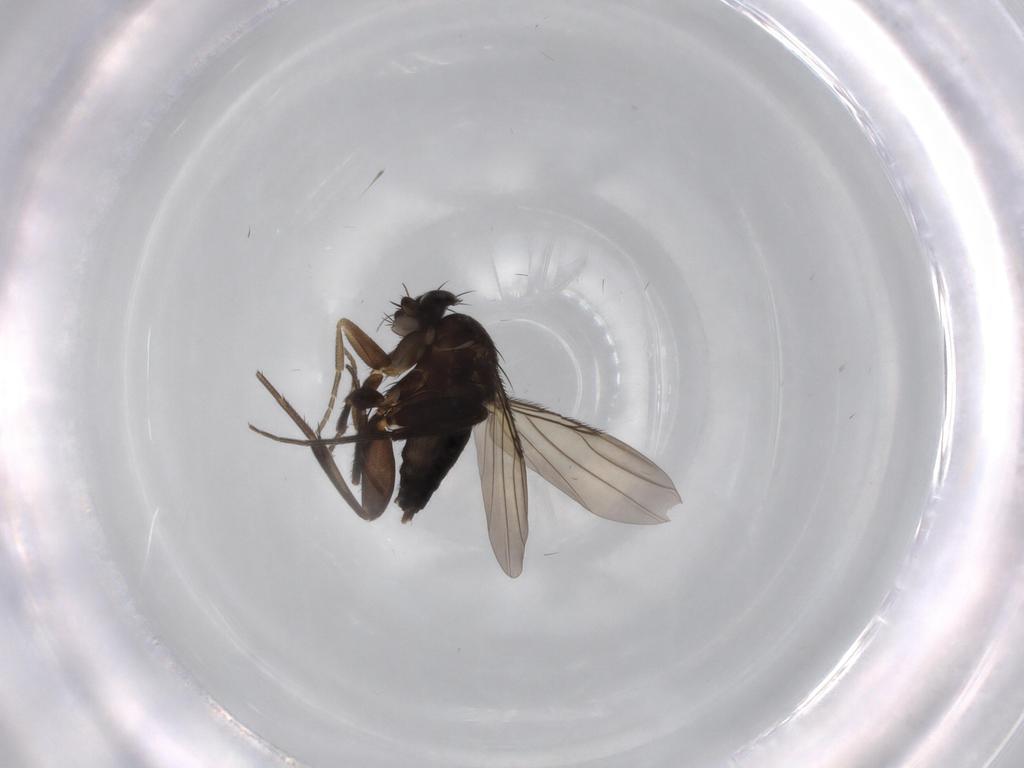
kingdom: Animalia
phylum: Arthropoda
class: Insecta
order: Diptera
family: Phoridae
